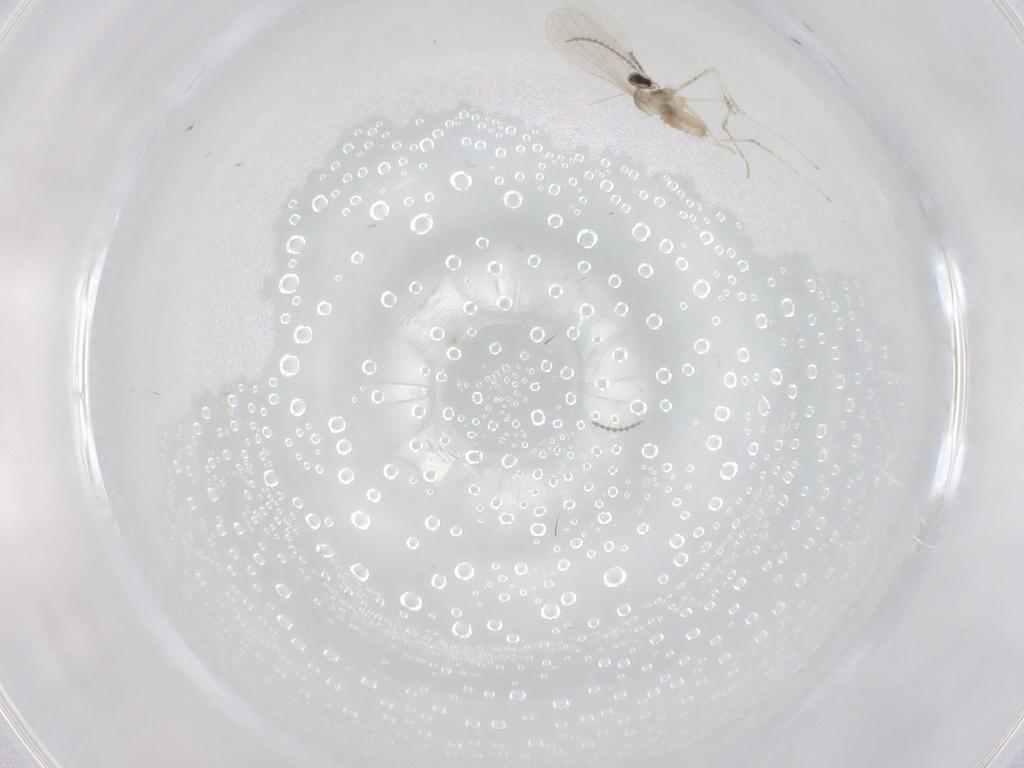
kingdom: Animalia
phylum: Arthropoda
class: Insecta
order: Diptera
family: Cecidomyiidae
